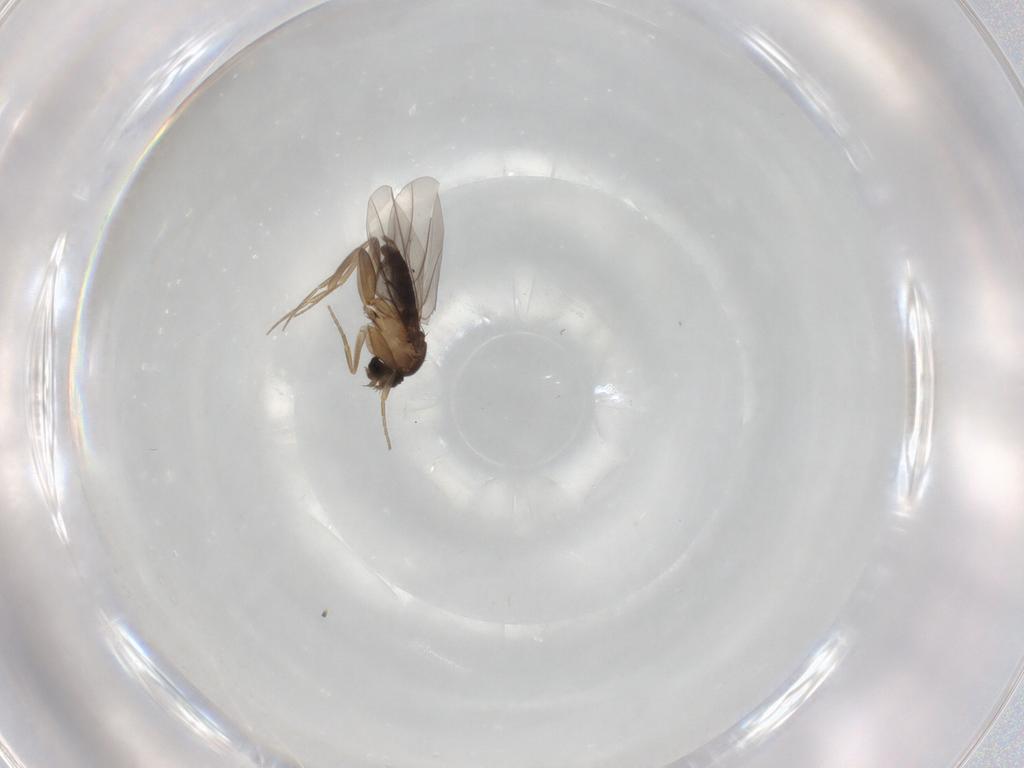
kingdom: Animalia
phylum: Arthropoda
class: Insecta
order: Diptera
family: Phoridae
